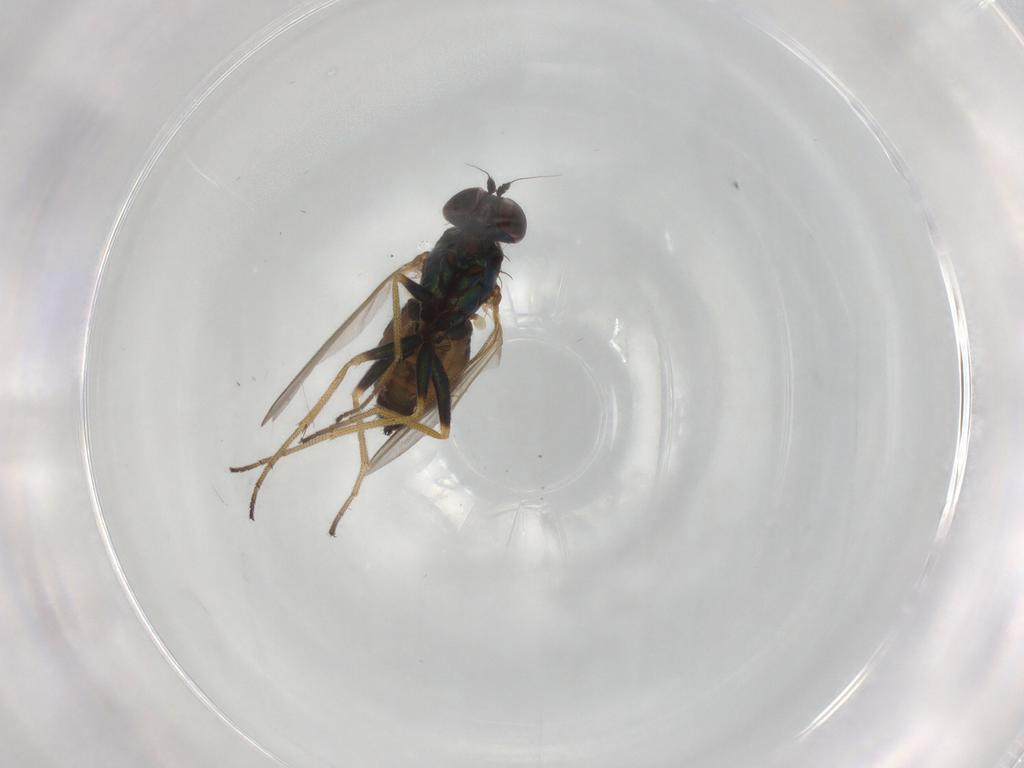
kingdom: Animalia
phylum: Arthropoda
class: Insecta
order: Diptera
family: Dolichopodidae
